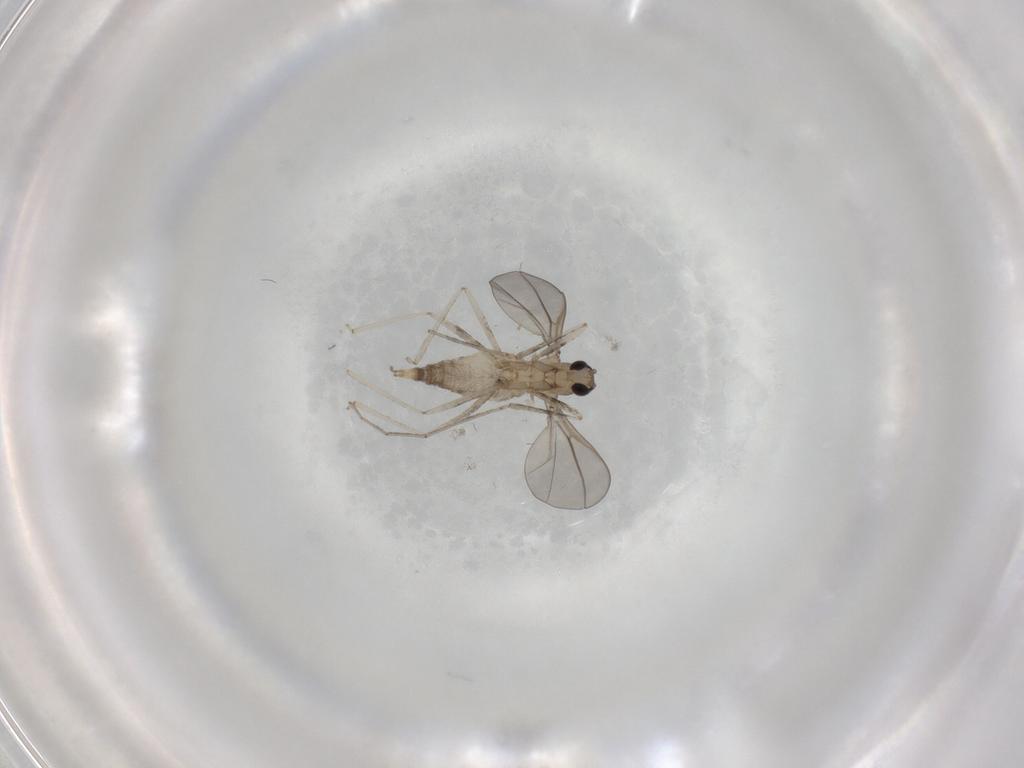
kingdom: Animalia
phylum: Arthropoda
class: Insecta
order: Diptera
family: Cecidomyiidae
